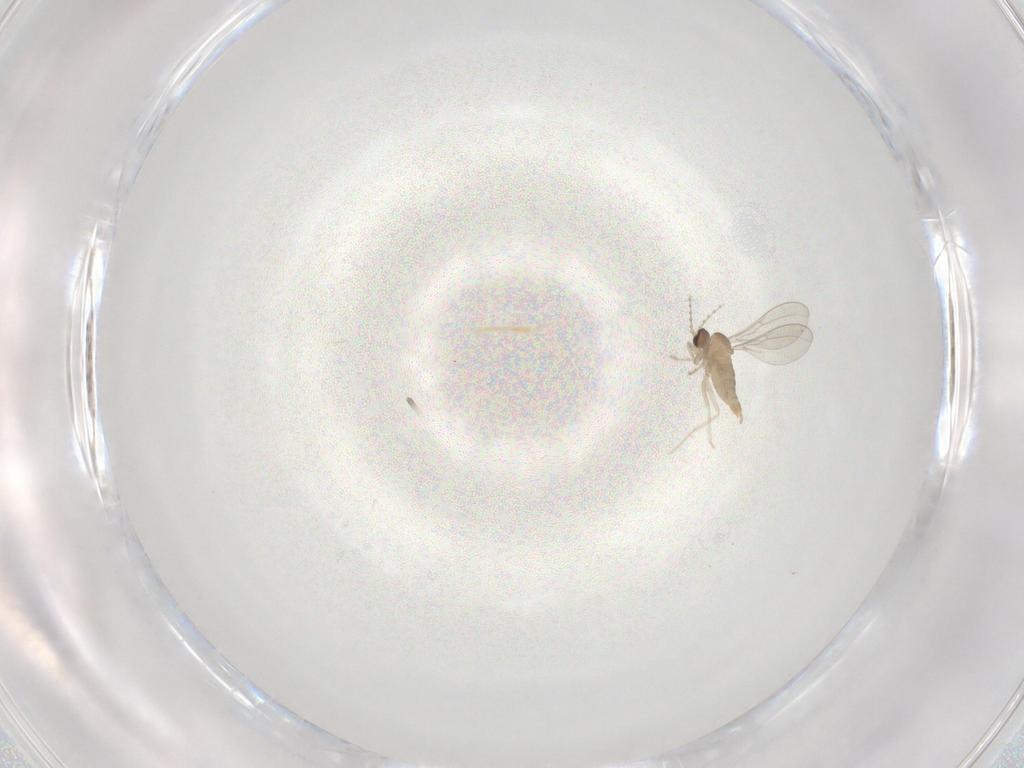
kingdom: Animalia
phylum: Arthropoda
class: Insecta
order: Diptera
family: Cecidomyiidae
